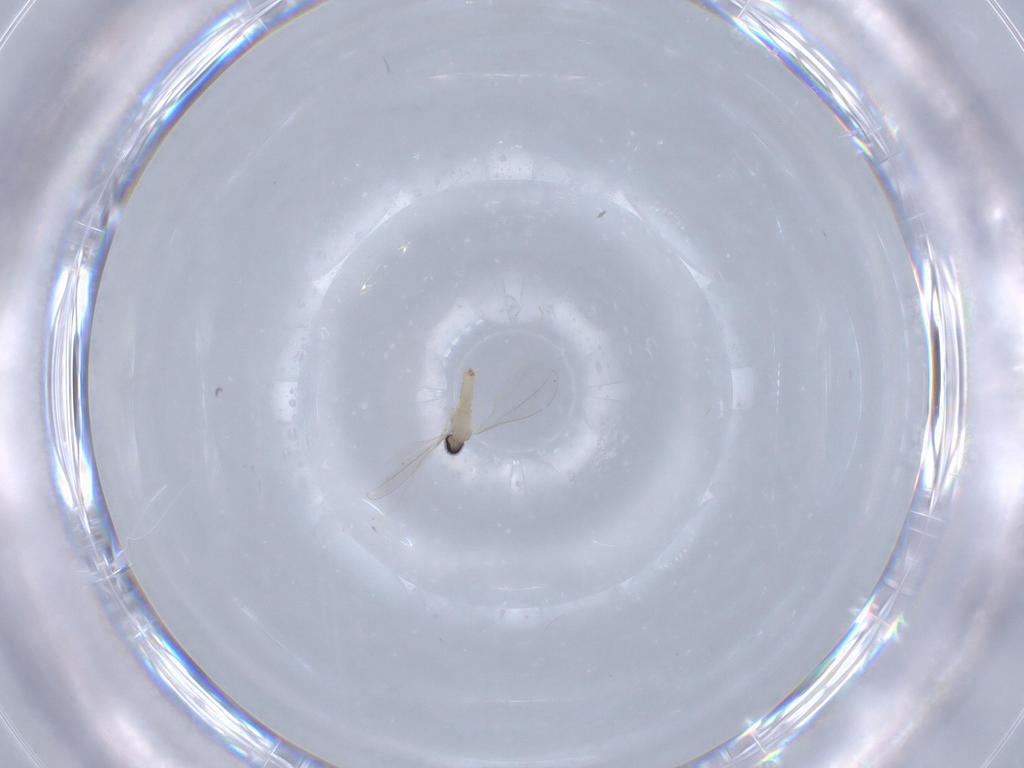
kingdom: Animalia
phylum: Arthropoda
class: Insecta
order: Diptera
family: Cecidomyiidae
